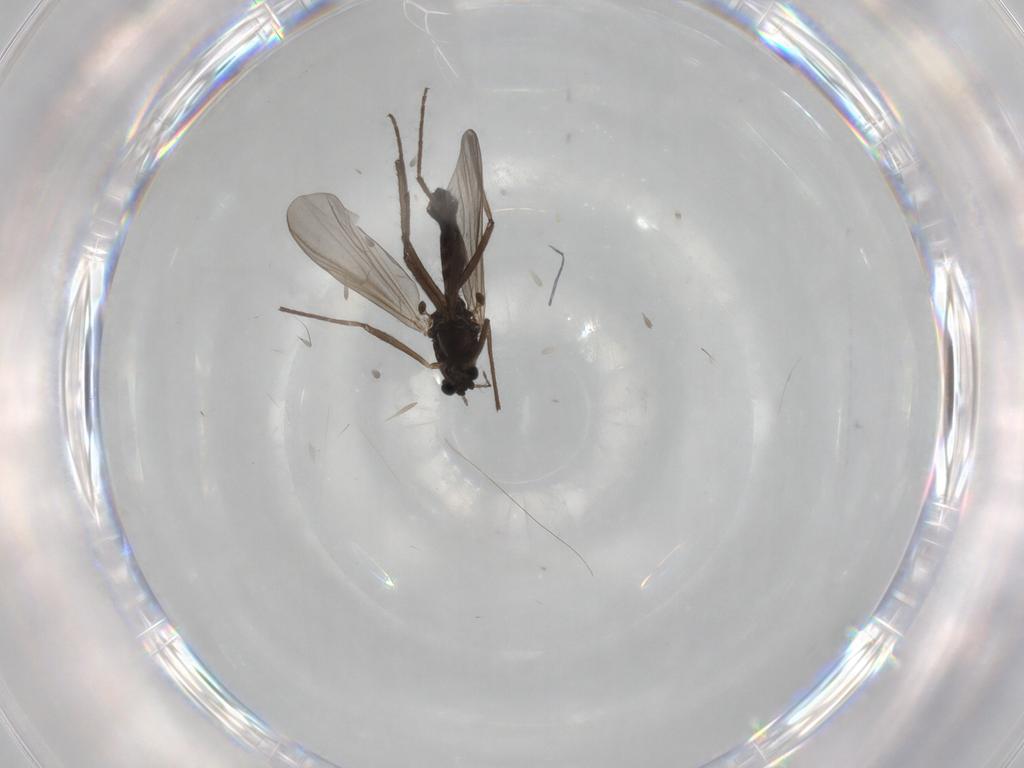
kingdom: Animalia
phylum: Arthropoda
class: Insecta
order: Diptera
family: Chironomidae
